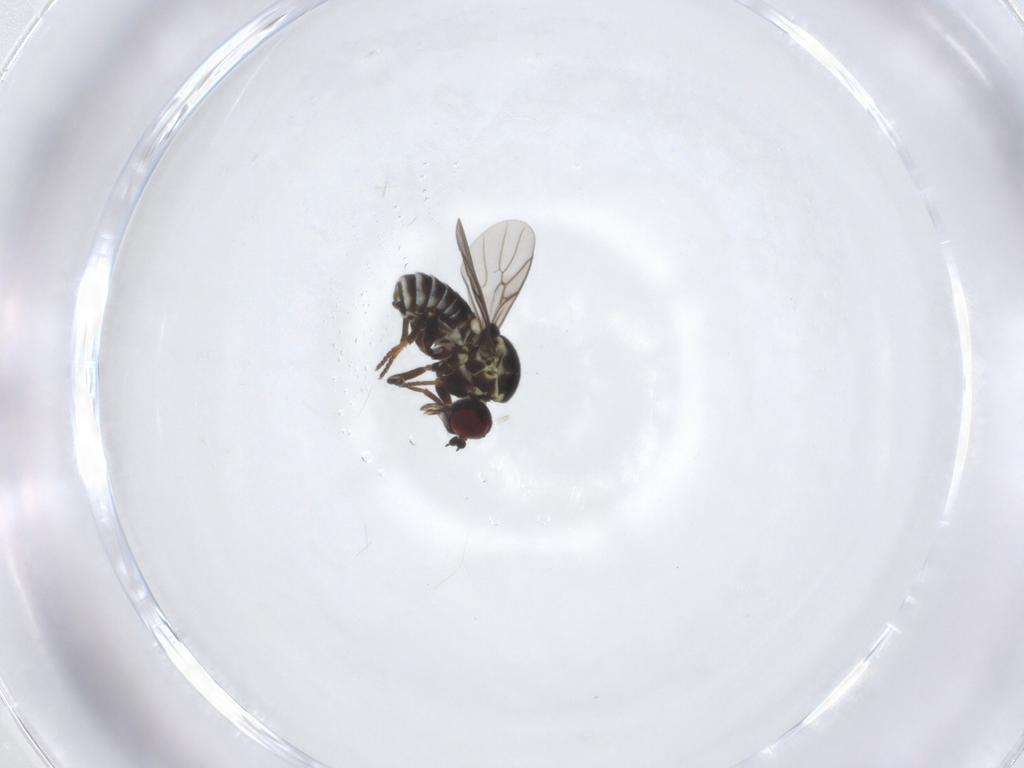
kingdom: Animalia
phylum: Arthropoda
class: Insecta
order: Diptera
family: Bombyliidae
